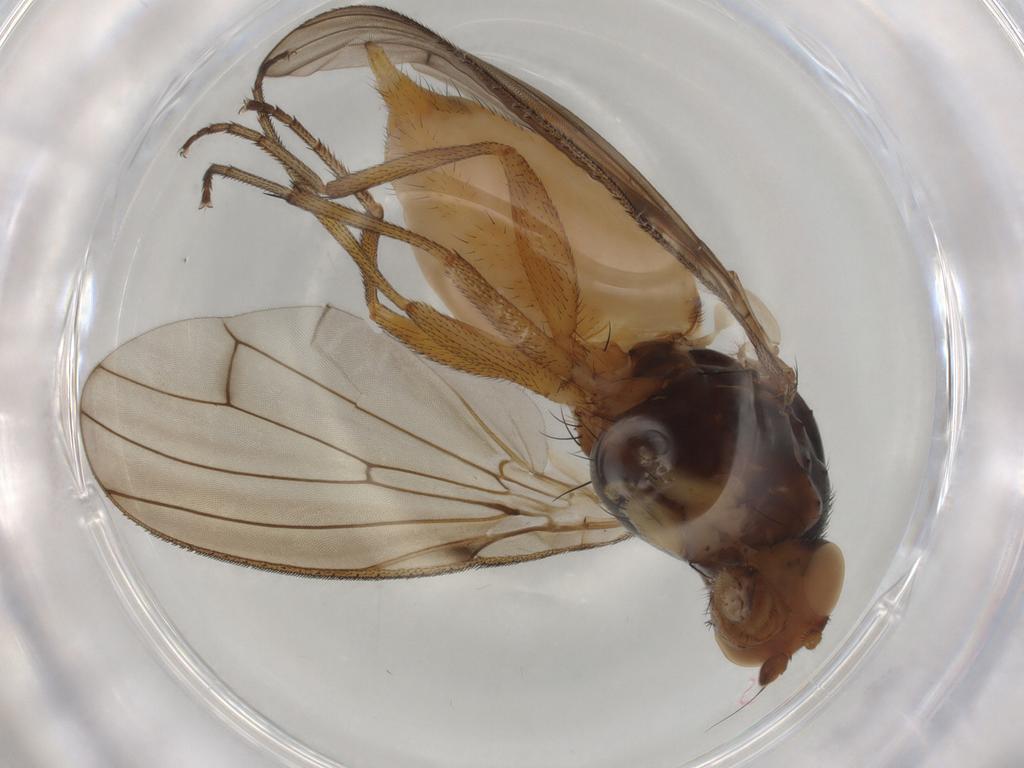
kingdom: Animalia
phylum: Arthropoda
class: Insecta
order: Diptera
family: Heleomyzidae
